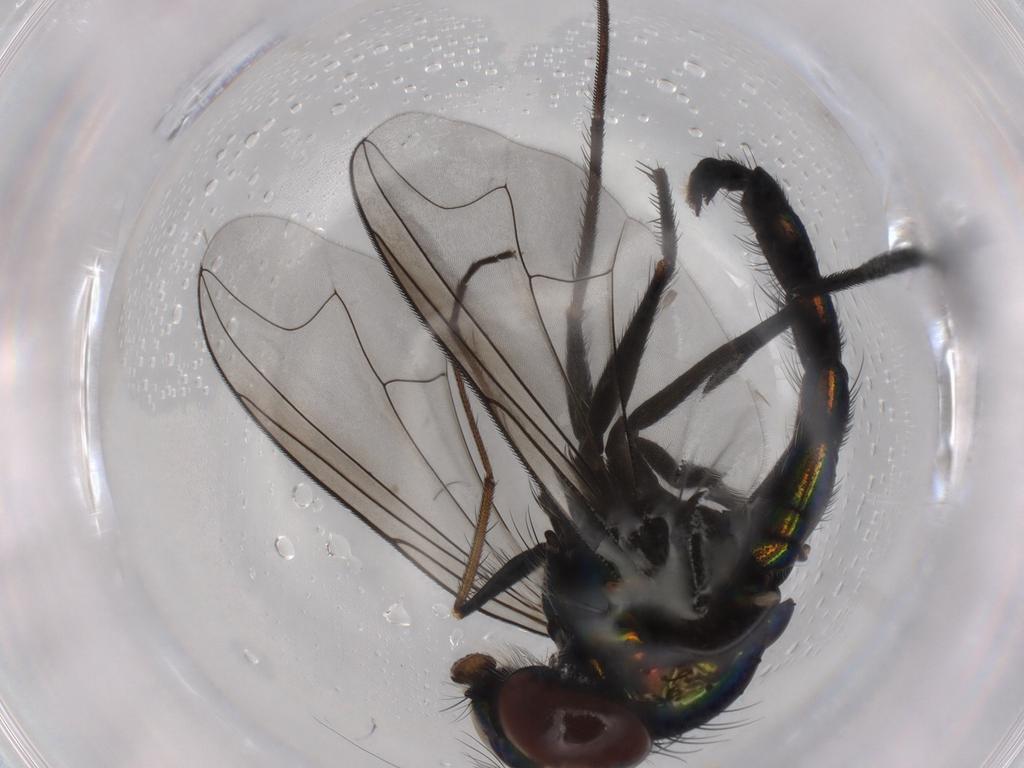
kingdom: Animalia
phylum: Arthropoda
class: Insecta
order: Diptera
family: Dolichopodidae
